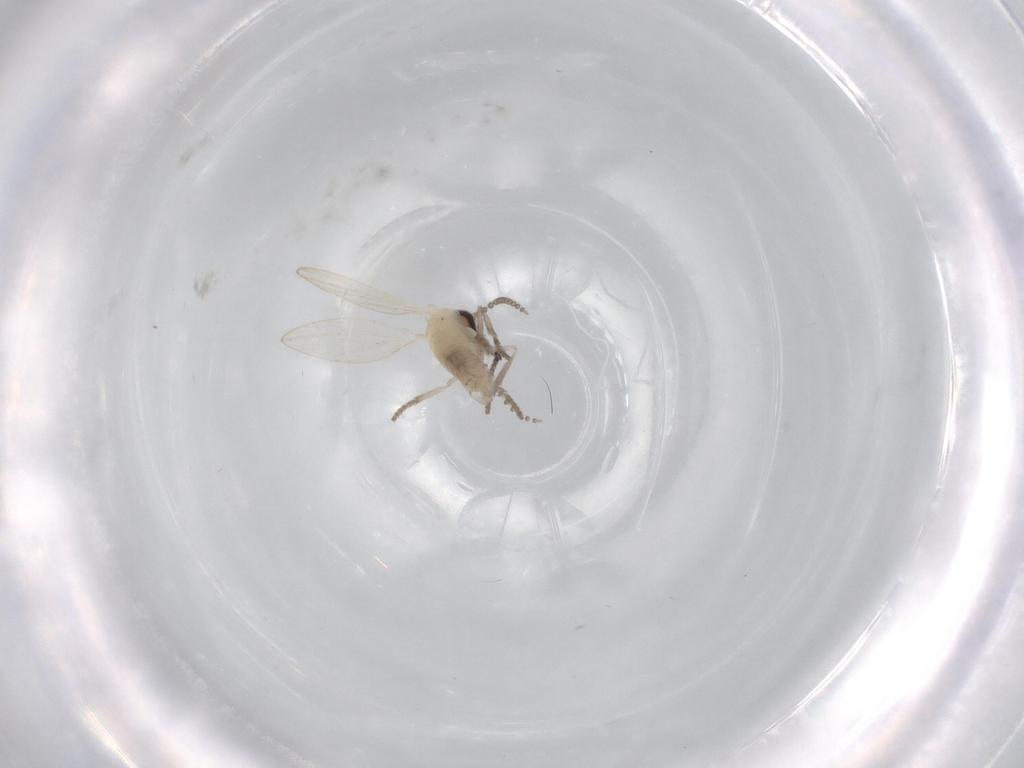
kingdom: Animalia
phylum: Arthropoda
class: Insecta
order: Diptera
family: Psychodidae
